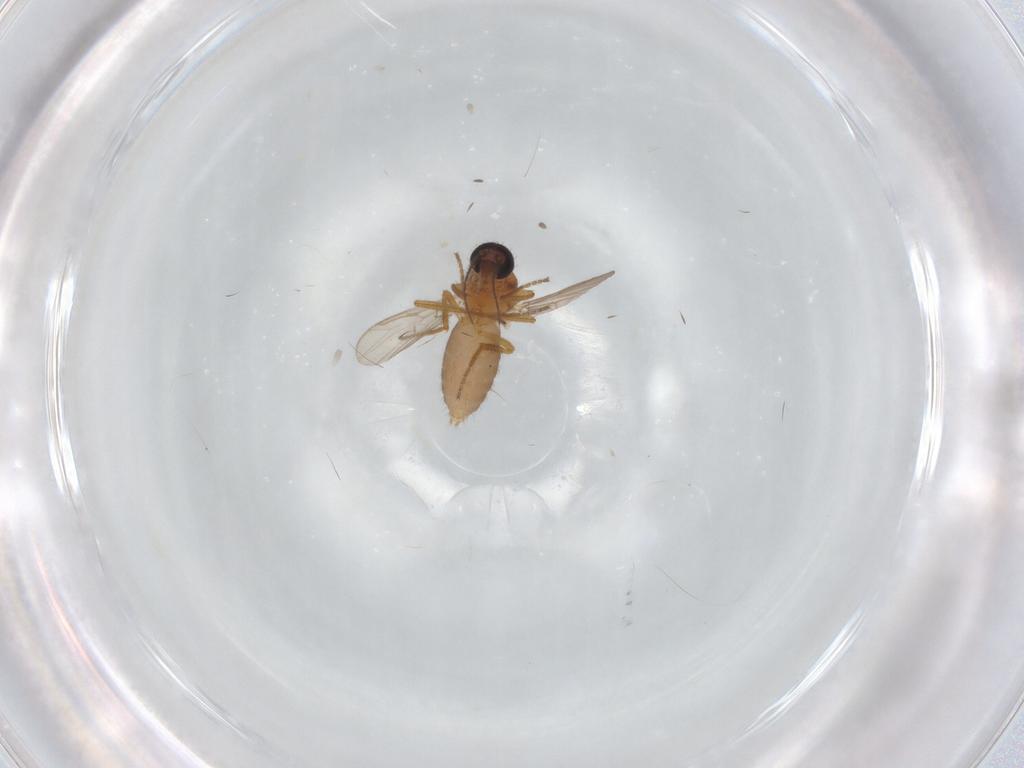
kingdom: Animalia
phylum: Arthropoda
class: Insecta
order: Diptera
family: Ceratopogonidae
